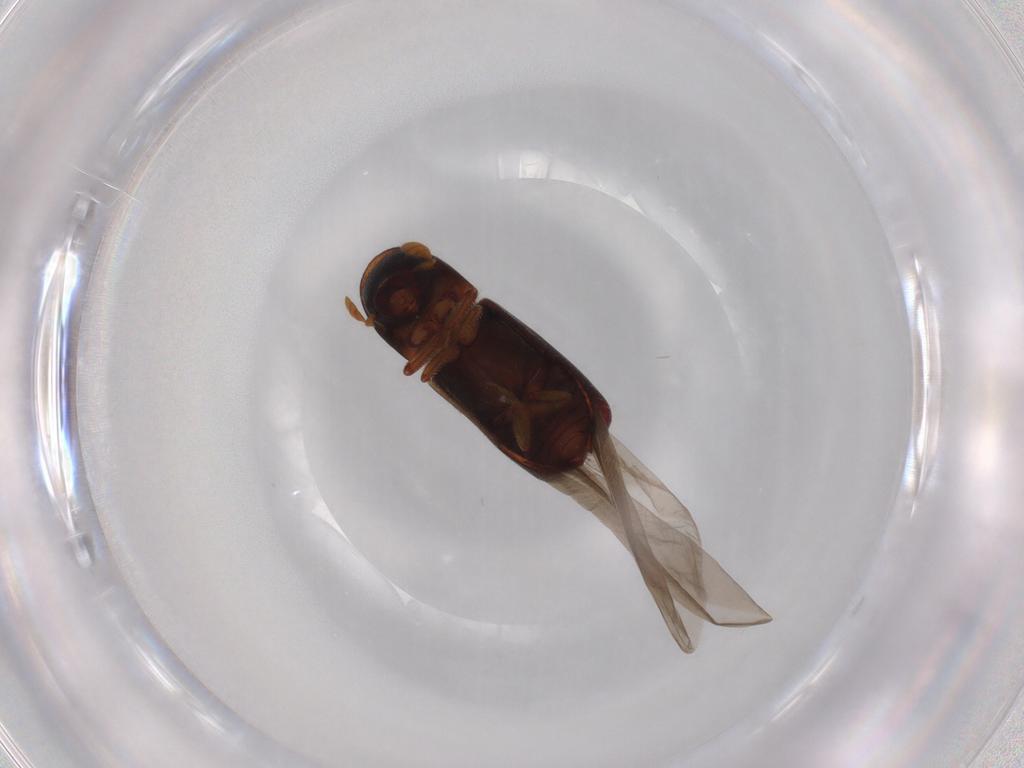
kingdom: Animalia
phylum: Arthropoda
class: Insecta
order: Coleoptera
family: Curculionidae
